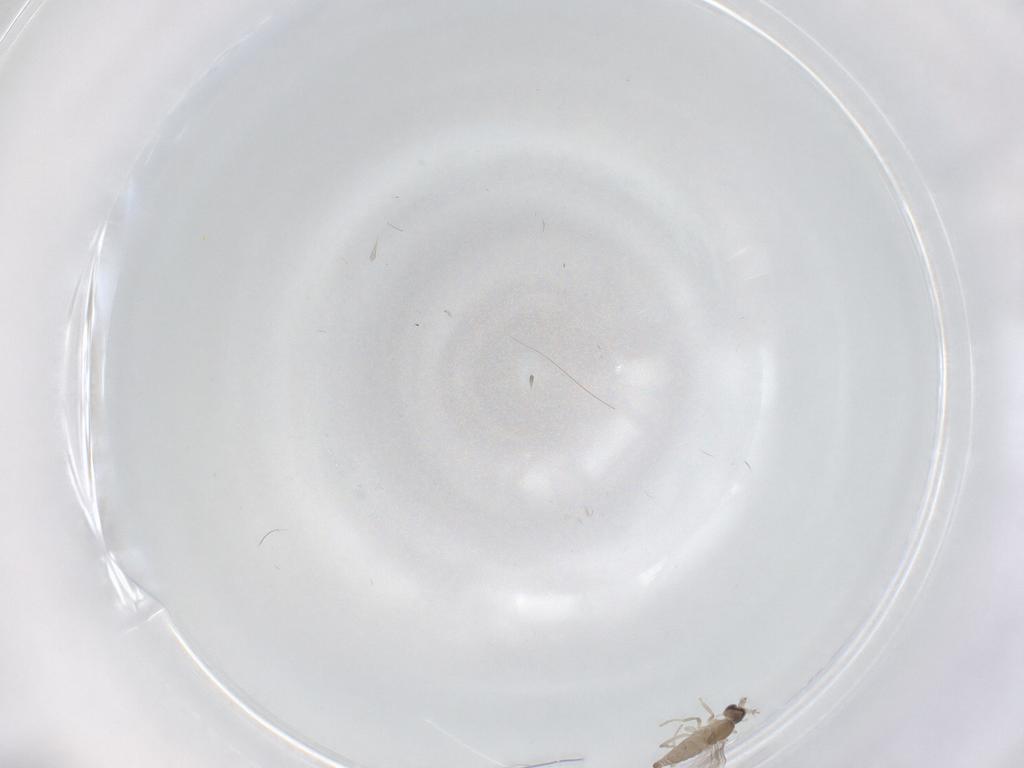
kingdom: Animalia
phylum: Arthropoda
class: Insecta
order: Diptera
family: Cecidomyiidae
